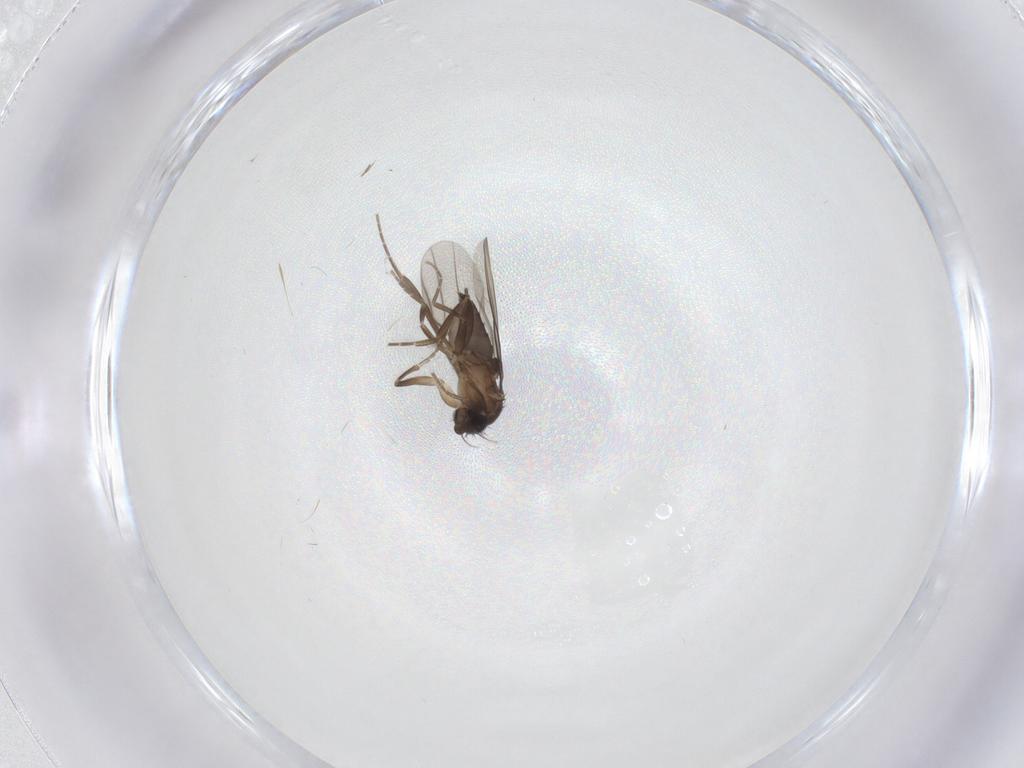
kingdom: Animalia
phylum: Arthropoda
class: Insecta
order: Diptera
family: Phoridae
